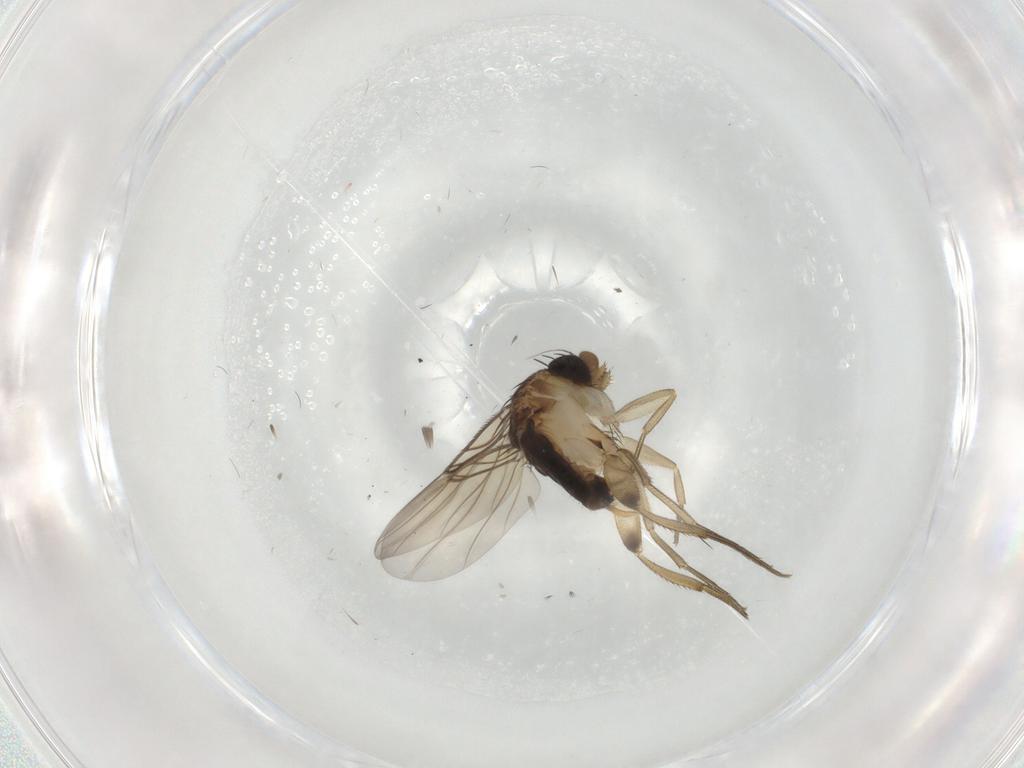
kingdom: Animalia
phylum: Arthropoda
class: Insecta
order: Diptera
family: Phoridae
